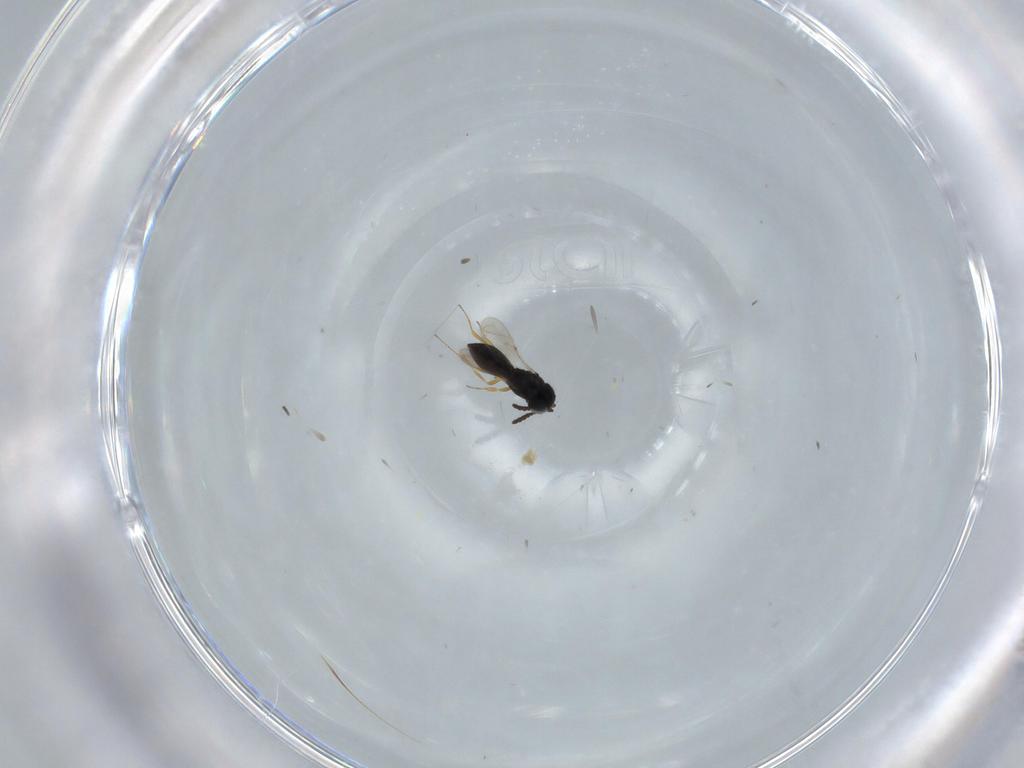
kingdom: Animalia
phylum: Arthropoda
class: Insecta
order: Hymenoptera
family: Scelionidae
